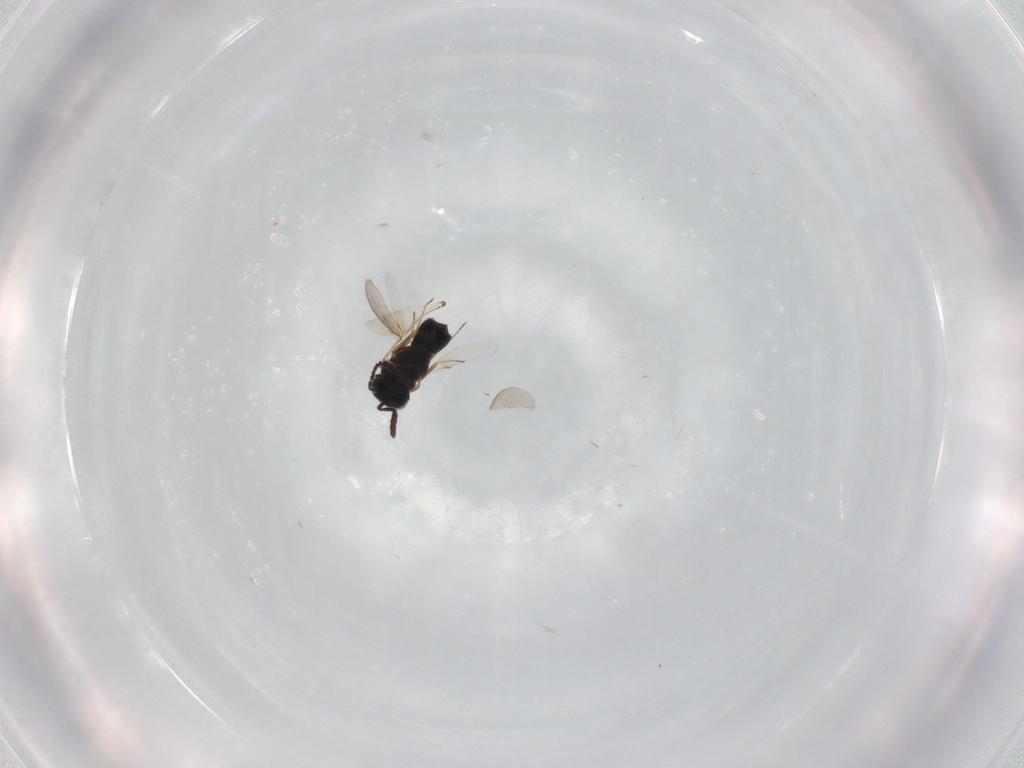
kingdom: Animalia
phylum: Arthropoda
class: Insecta
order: Hymenoptera
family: Scelionidae
